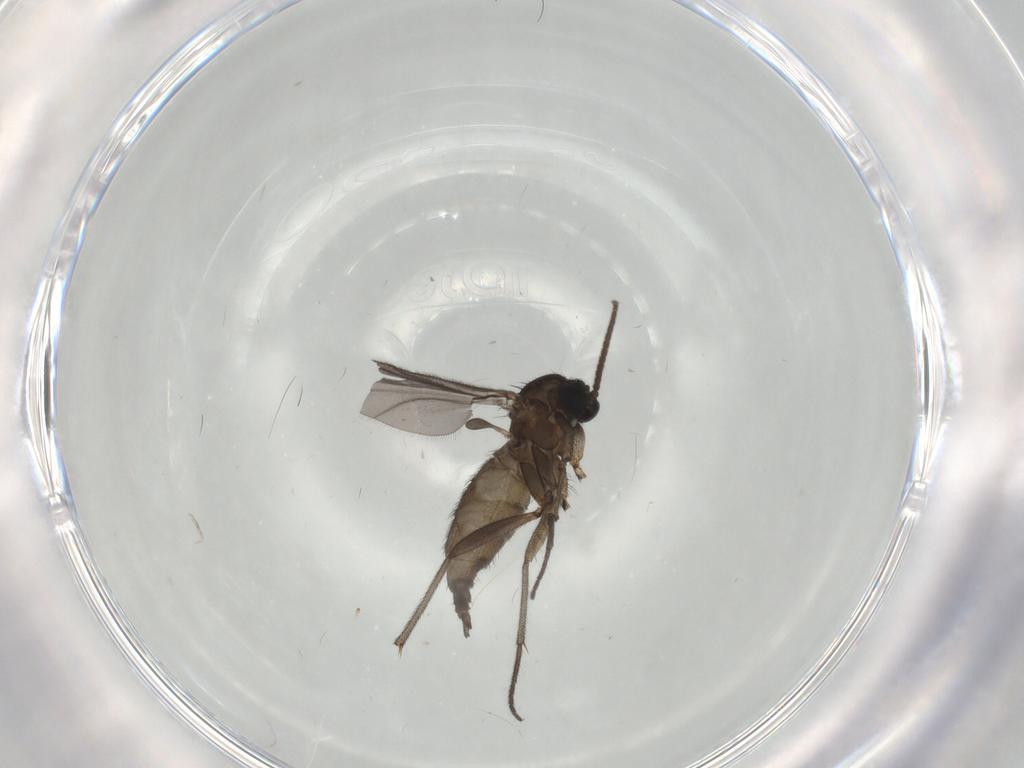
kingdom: Animalia
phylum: Arthropoda
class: Insecta
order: Diptera
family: Sciaridae
